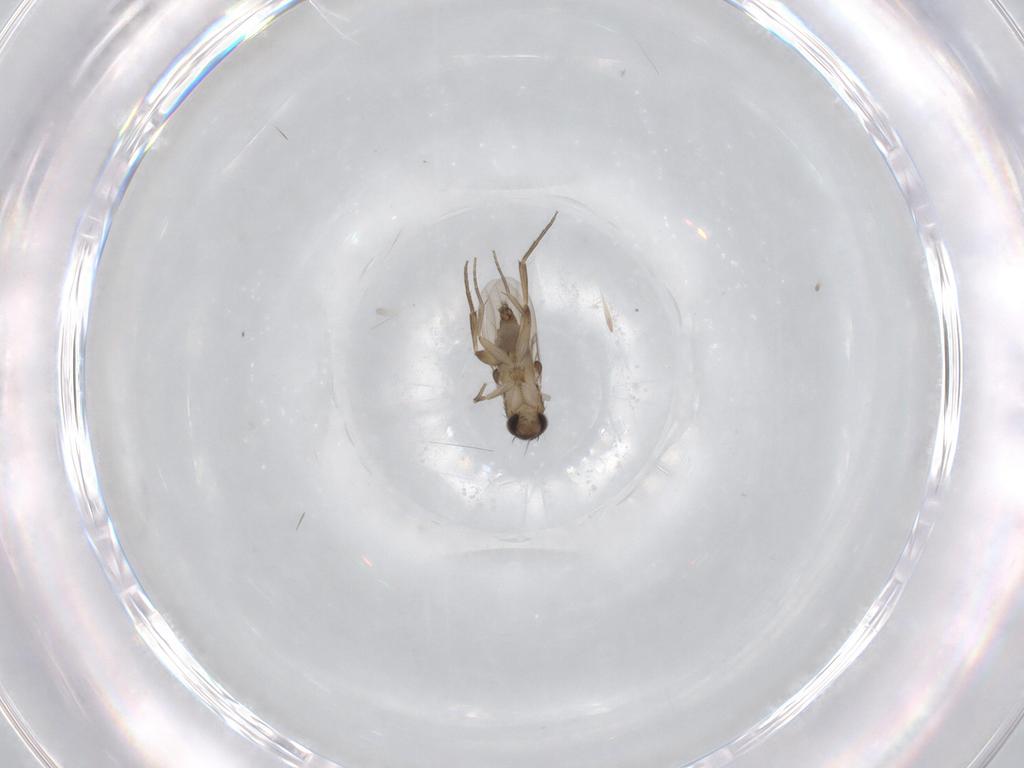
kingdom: Animalia
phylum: Arthropoda
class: Insecta
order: Diptera
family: Phoridae
